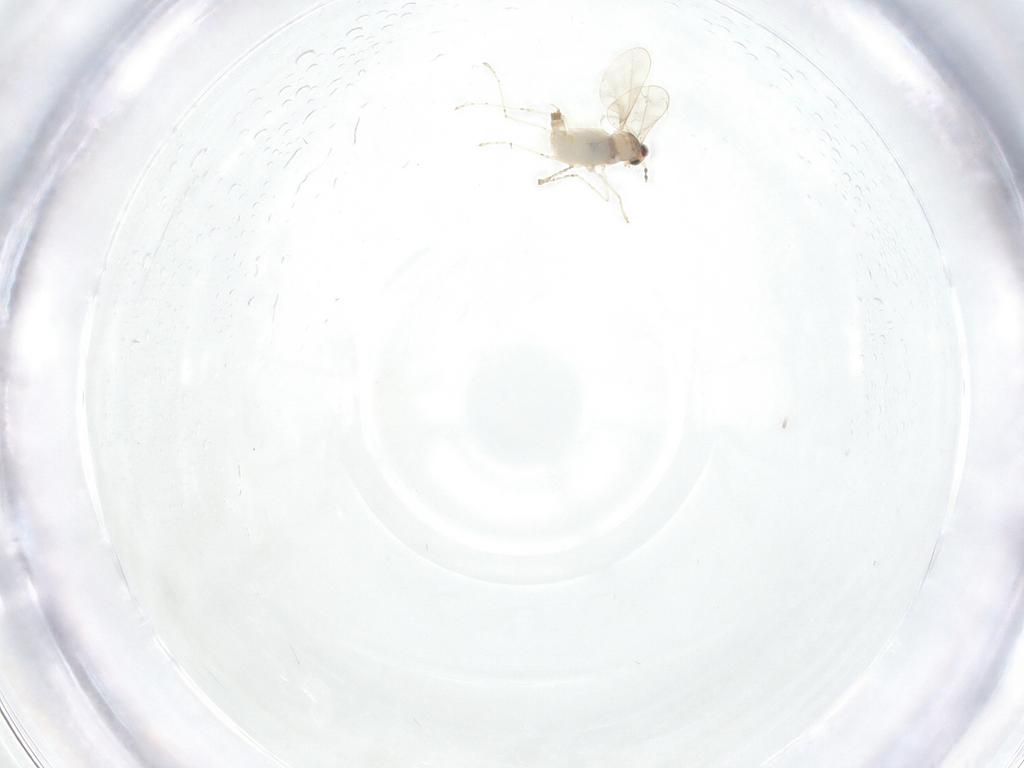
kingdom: Animalia
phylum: Arthropoda
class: Insecta
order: Diptera
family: Cecidomyiidae
